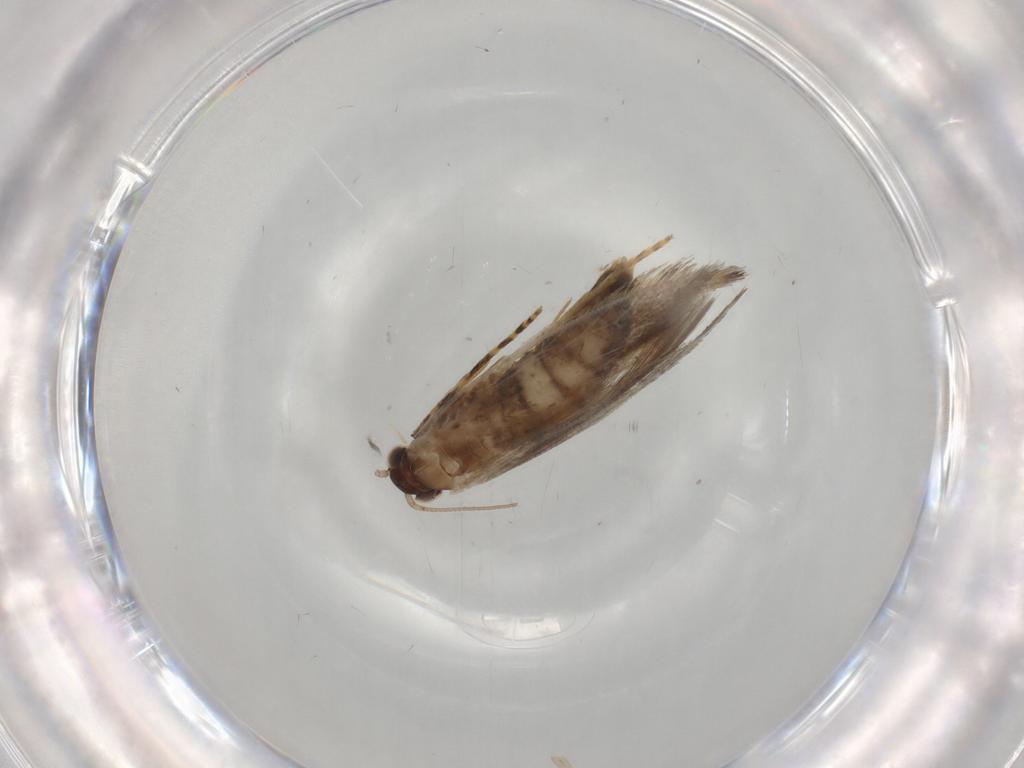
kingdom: Animalia
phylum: Arthropoda
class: Insecta
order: Lepidoptera
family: Tineidae
